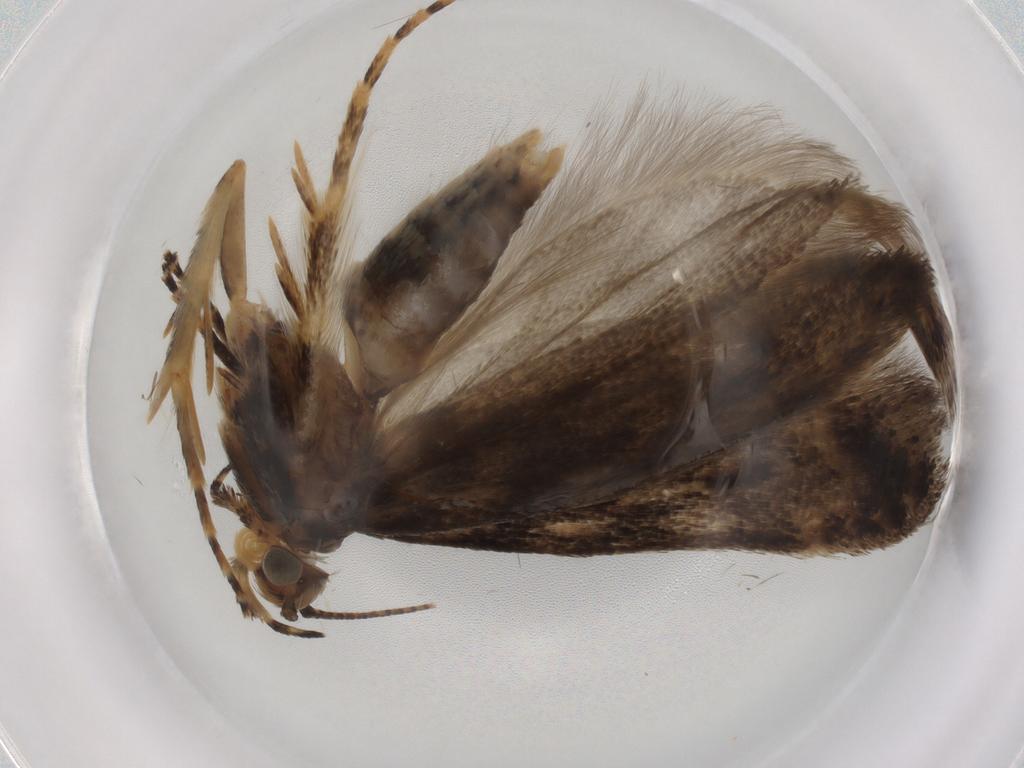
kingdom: Animalia
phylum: Arthropoda
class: Insecta
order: Lepidoptera
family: Gelechiidae
